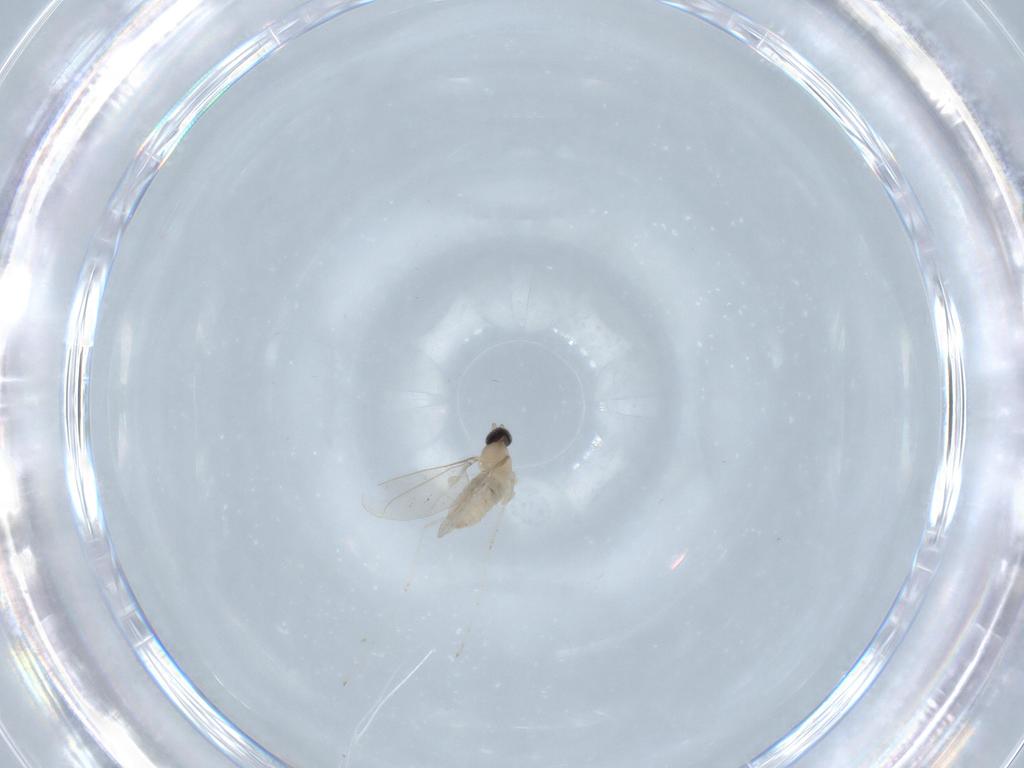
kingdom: Animalia
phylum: Arthropoda
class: Insecta
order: Diptera
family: Cecidomyiidae
